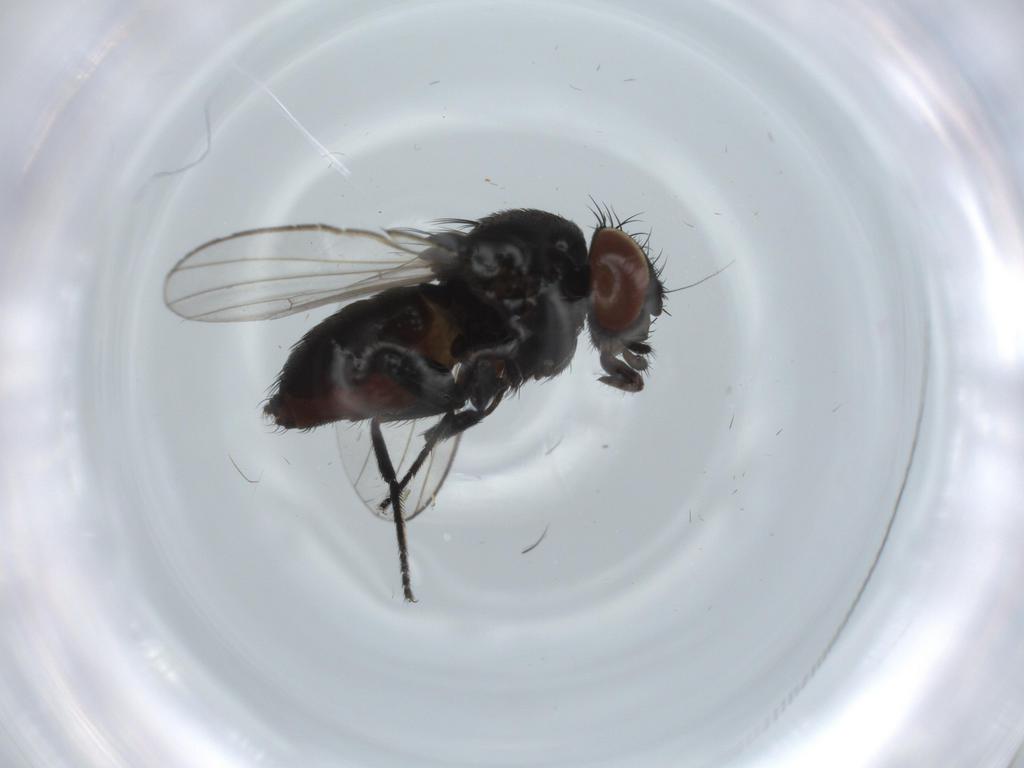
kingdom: Animalia
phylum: Arthropoda
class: Insecta
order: Diptera
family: Milichiidae
